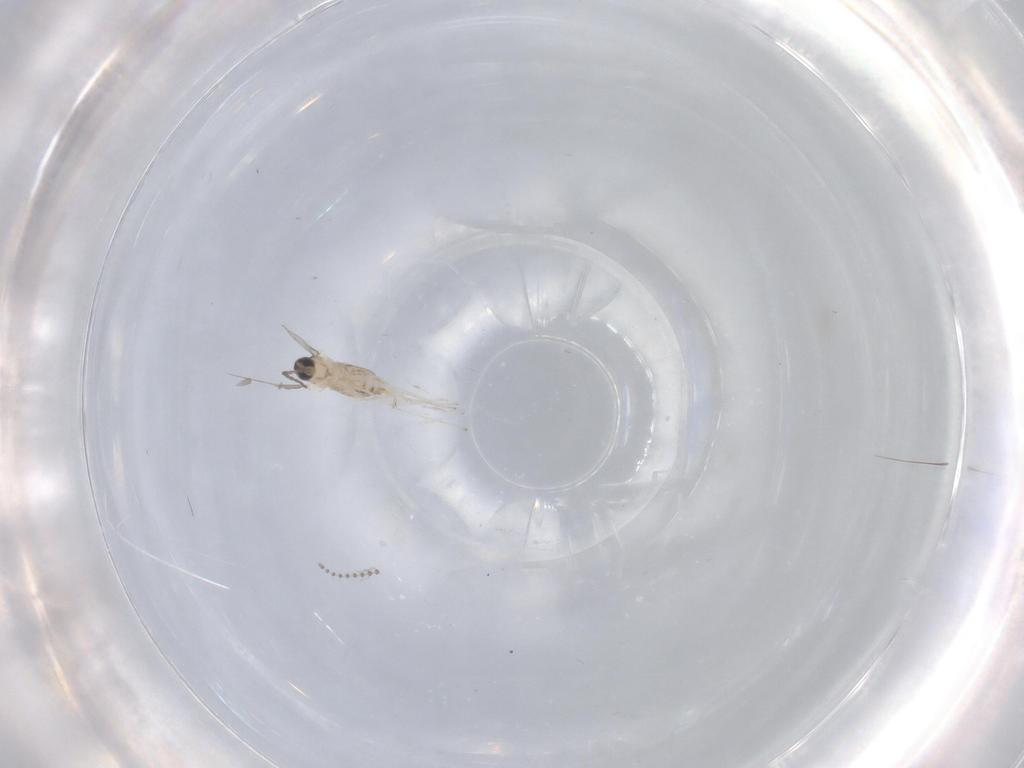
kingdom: Animalia
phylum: Arthropoda
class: Insecta
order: Diptera
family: Cecidomyiidae
